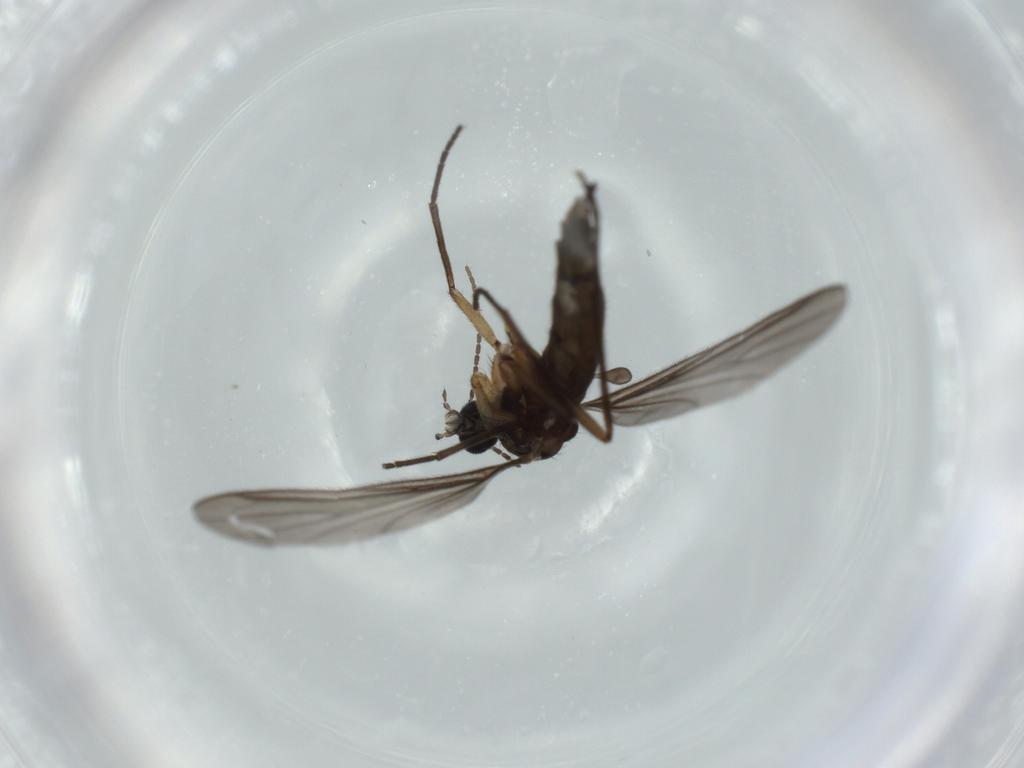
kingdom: Animalia
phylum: Arthropoda
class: Insecta
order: Diptera
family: Sciaridae
